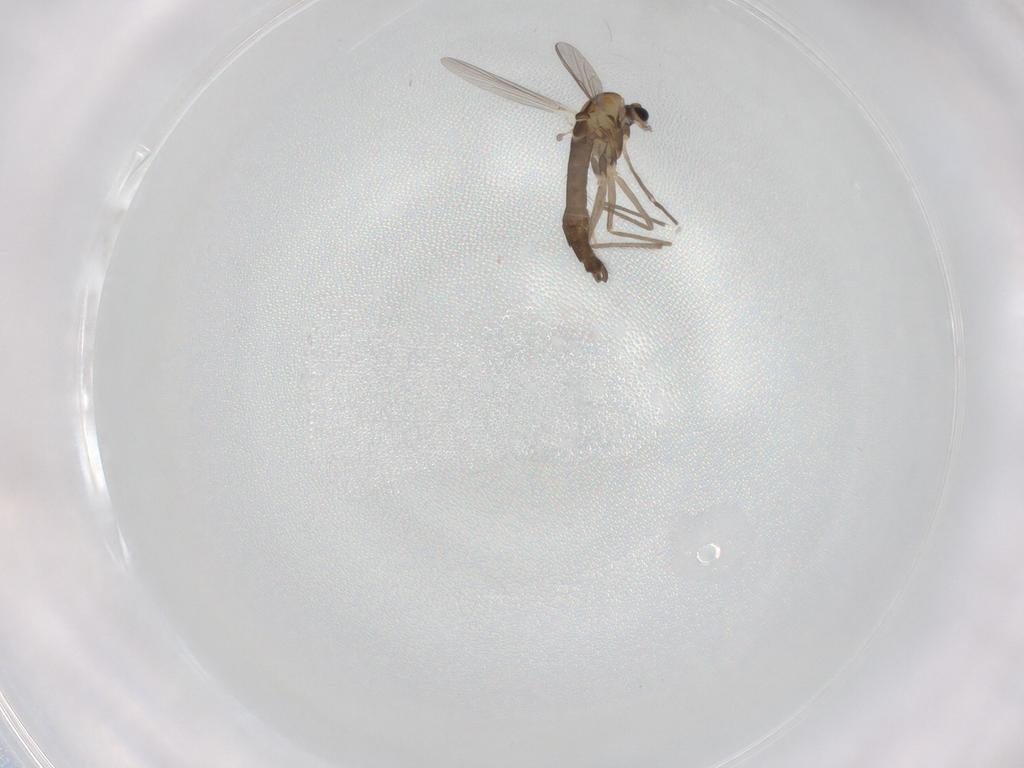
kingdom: Animalia
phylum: Arthropoda
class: Insecta
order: Diptera
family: Chironomidae
